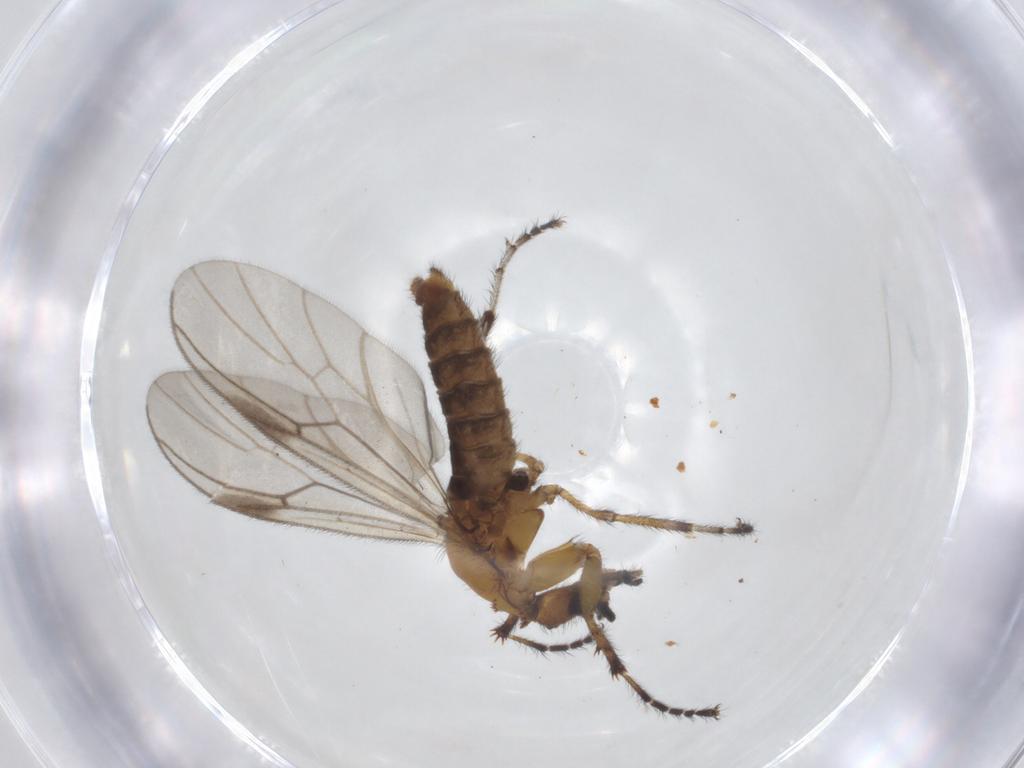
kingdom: Animalia
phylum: Arthropoda
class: Insecta
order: Diptera
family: Bibionidae
